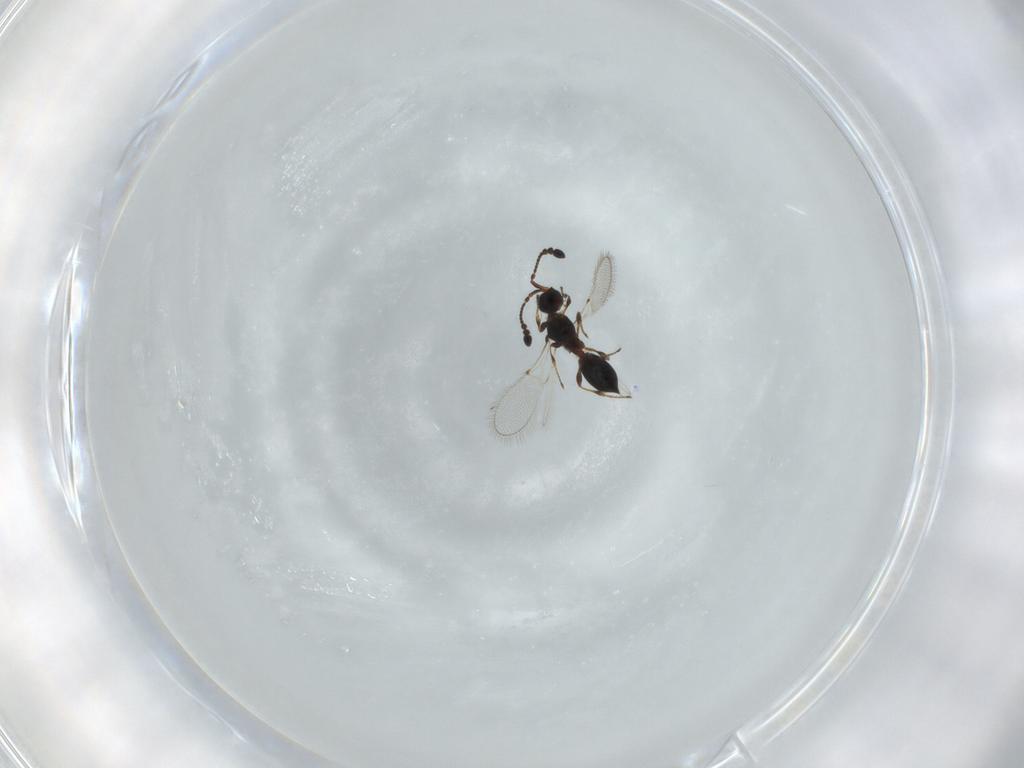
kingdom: Animalia
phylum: Arthropoda
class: Insecta
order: Hymenoptera
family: Diapriidae
